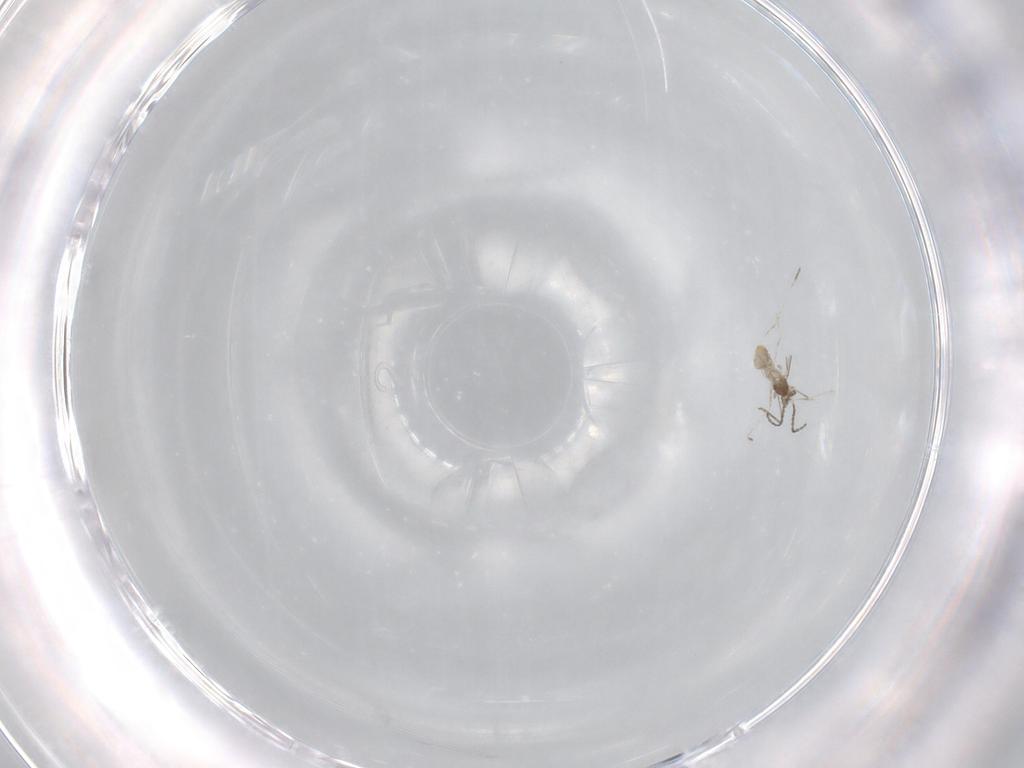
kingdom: Animalia
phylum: Arthropoda
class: Insecta
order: Diptera
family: Cecidomyiidae
